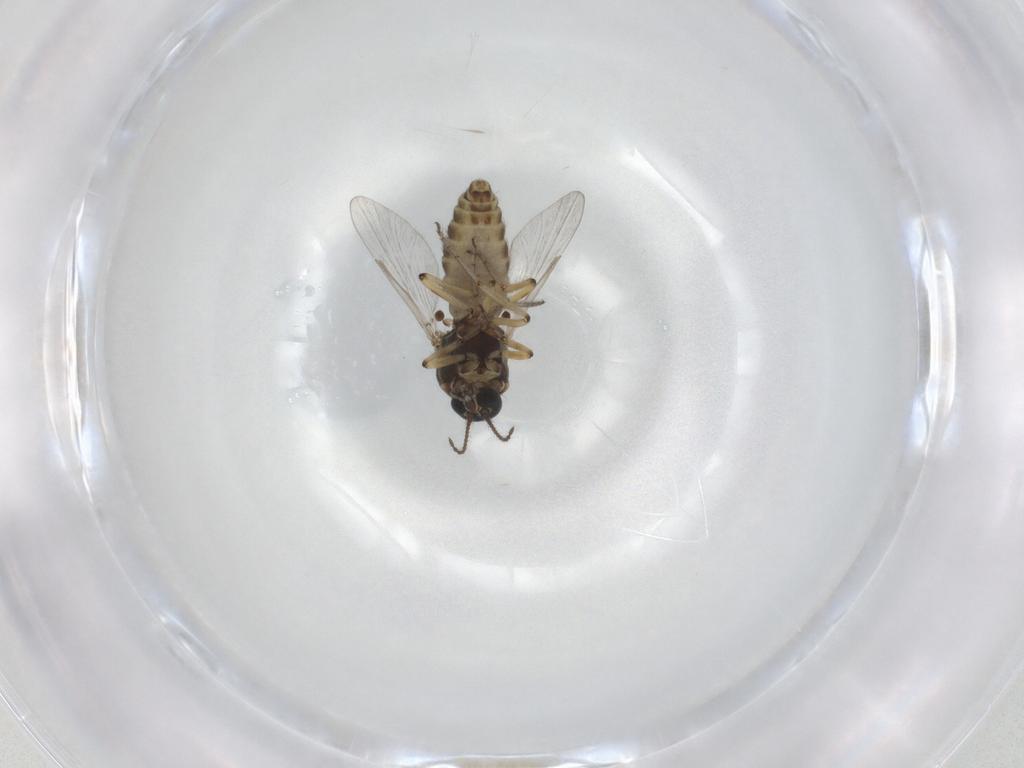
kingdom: Animalia
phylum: Arthropoda
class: Insecta
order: Diptera
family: Ceratopogonidae
